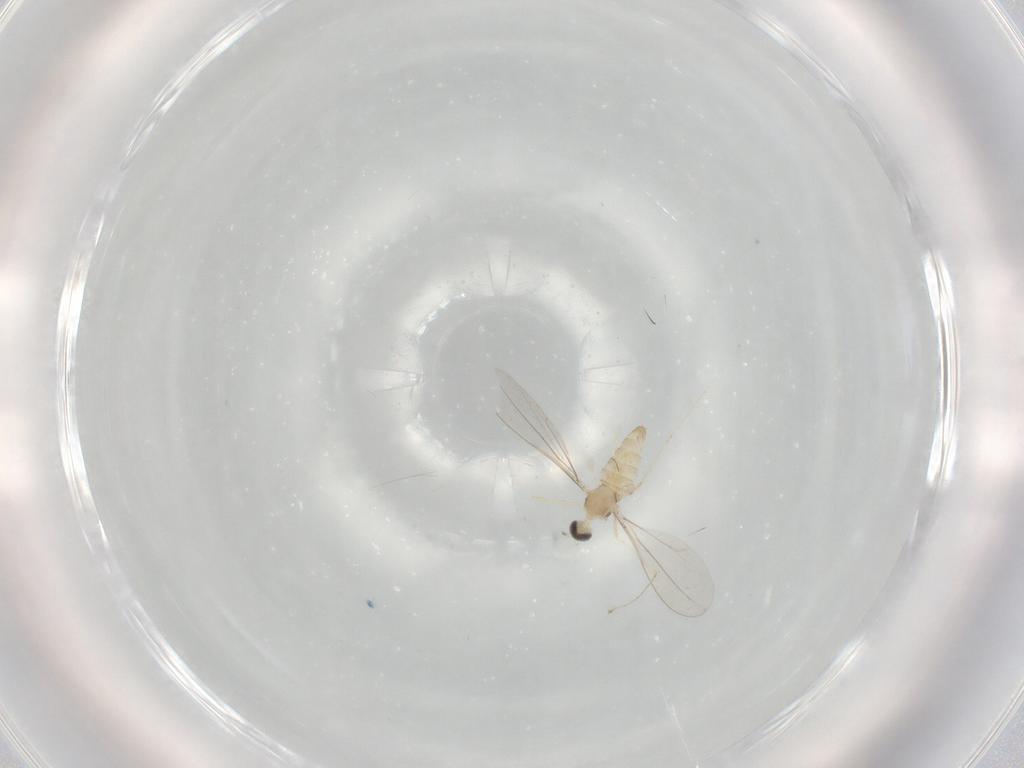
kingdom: Animalia
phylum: Arthropoda
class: Insecta
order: Diptera
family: Cecidomyiidae
